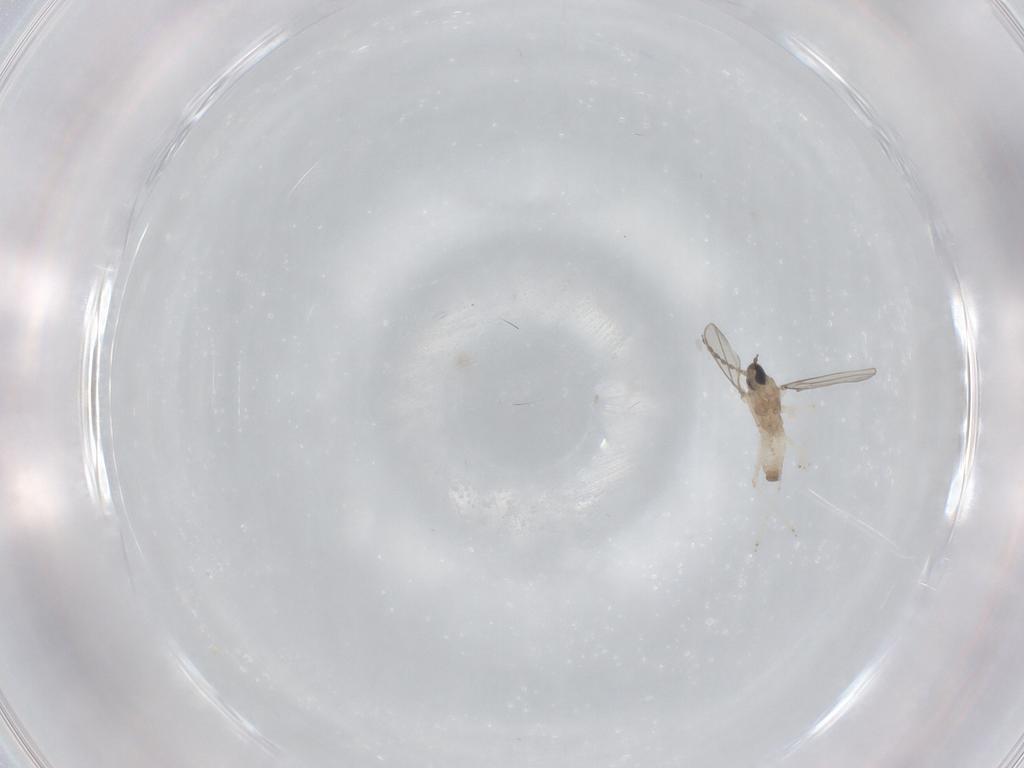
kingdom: Animalia
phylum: Arthropoda
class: Insecta
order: Diptera
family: Cecidomyiidae
